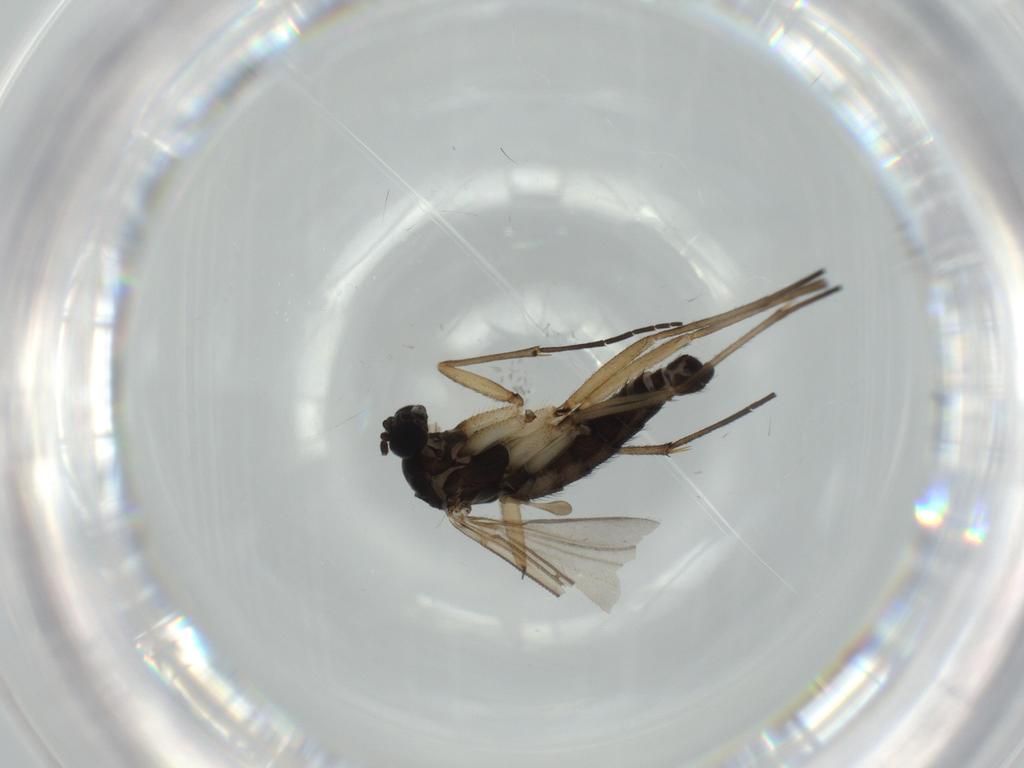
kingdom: Animalia
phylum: Arthropoda
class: Insecta
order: Diptera
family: Sciaridae
